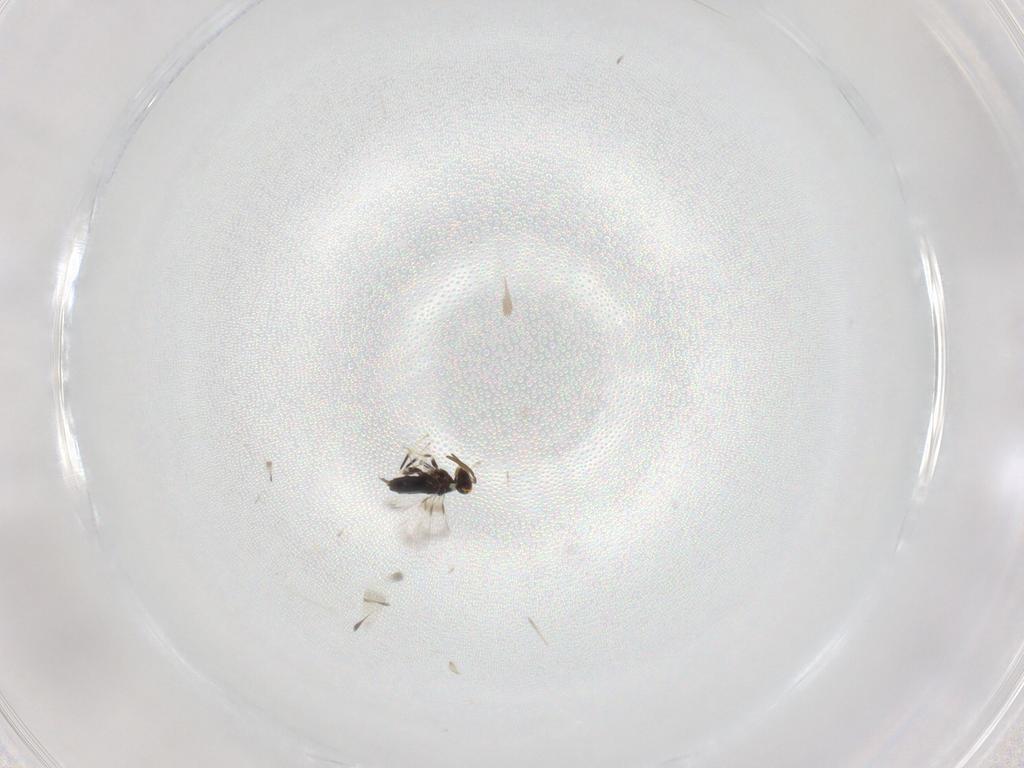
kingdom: Animalia
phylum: Arthropoda
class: Insecta
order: Hymenoptera
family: Signiphoridae
